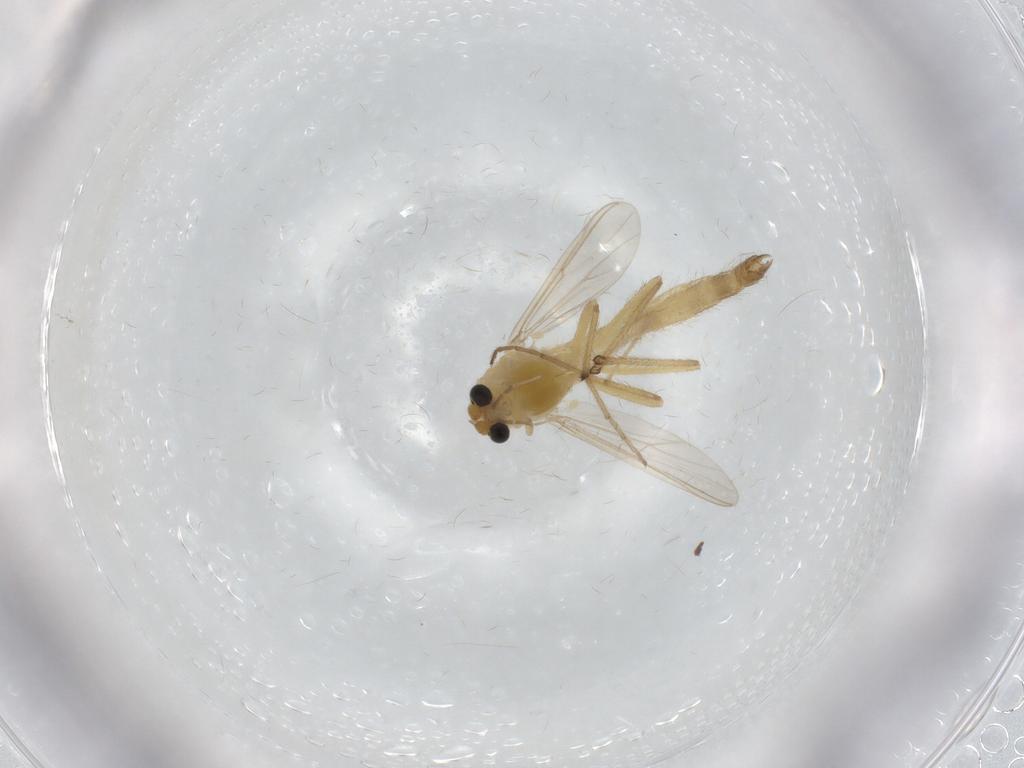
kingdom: Animalia
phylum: Arthropoda
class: Insecta
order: Diptera
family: Chironomidae
